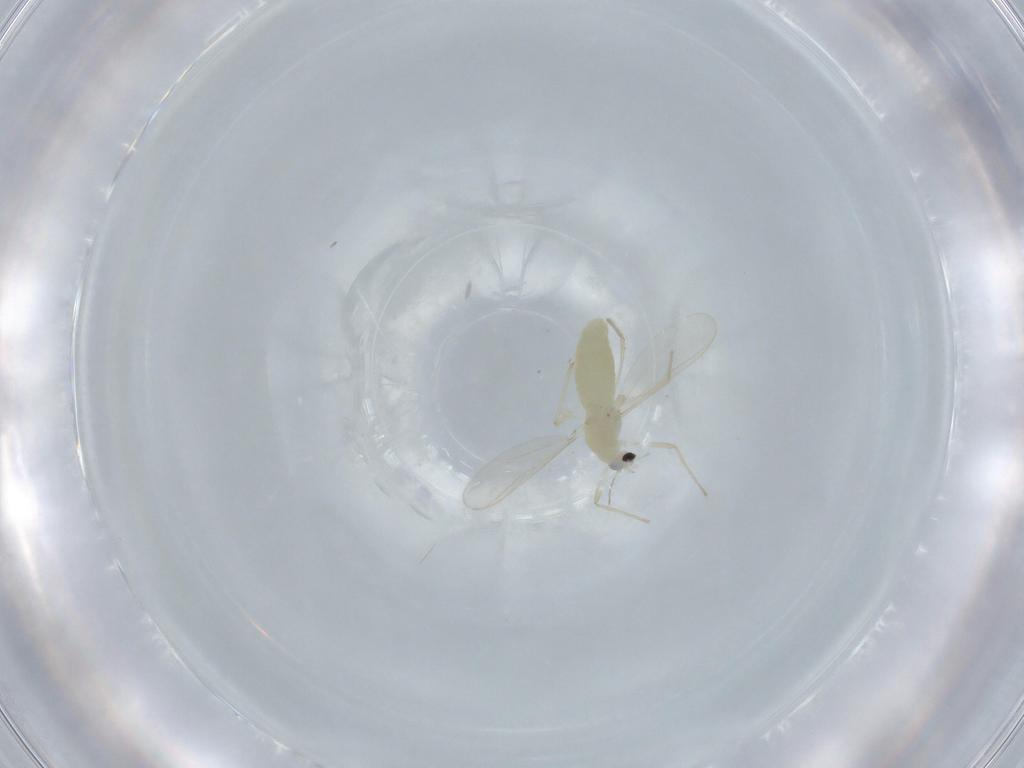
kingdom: Animalia
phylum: Arthropoda
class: Insecta
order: Diptera
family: Chironomidae
